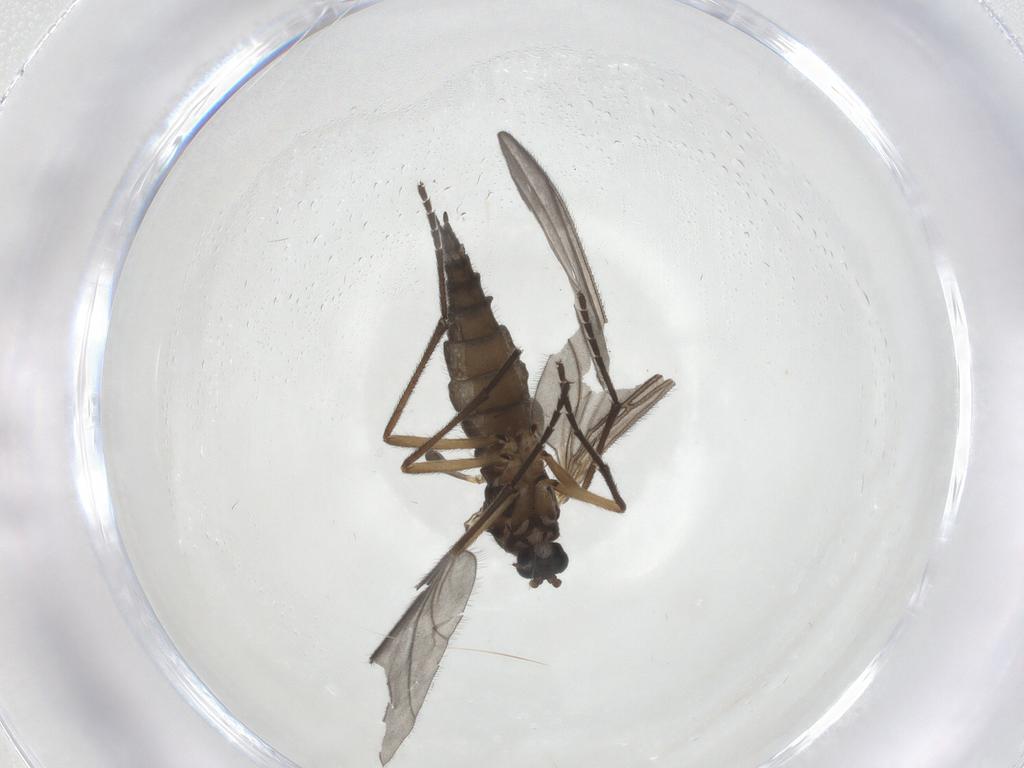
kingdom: Animalia
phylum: Arthropoda
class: Insecta
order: Diptera
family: Sciaridae
